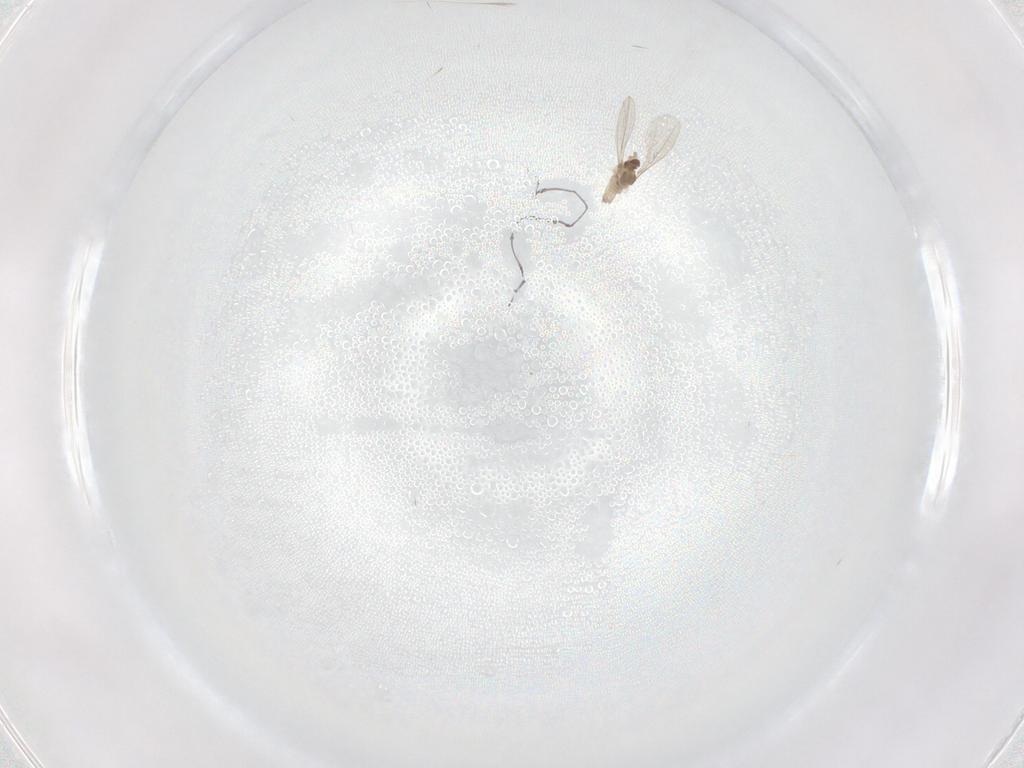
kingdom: Animalia
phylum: Arthropoda
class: Insecta
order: Diptera
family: Cecidomyiidae
